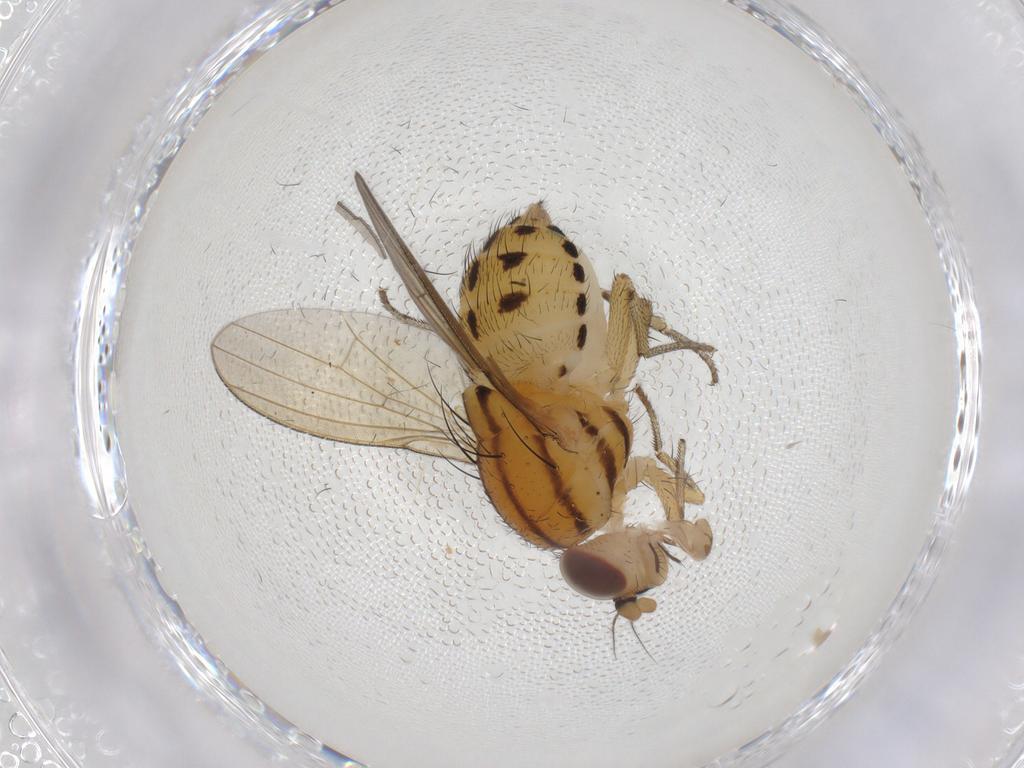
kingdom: Animalia
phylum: Arthropoda
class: Insecta
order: Diptera
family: Lauxaniidae
